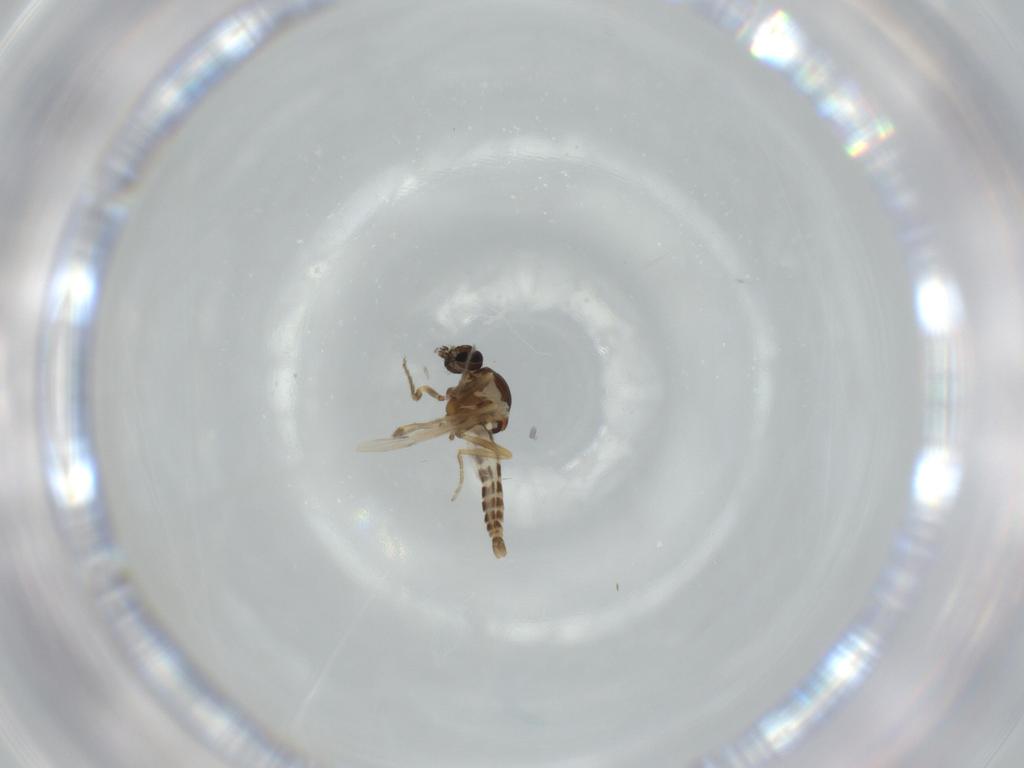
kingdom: Animalia
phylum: Arthropoda
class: Insecta
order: Diptera
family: Ceratopogonidae
